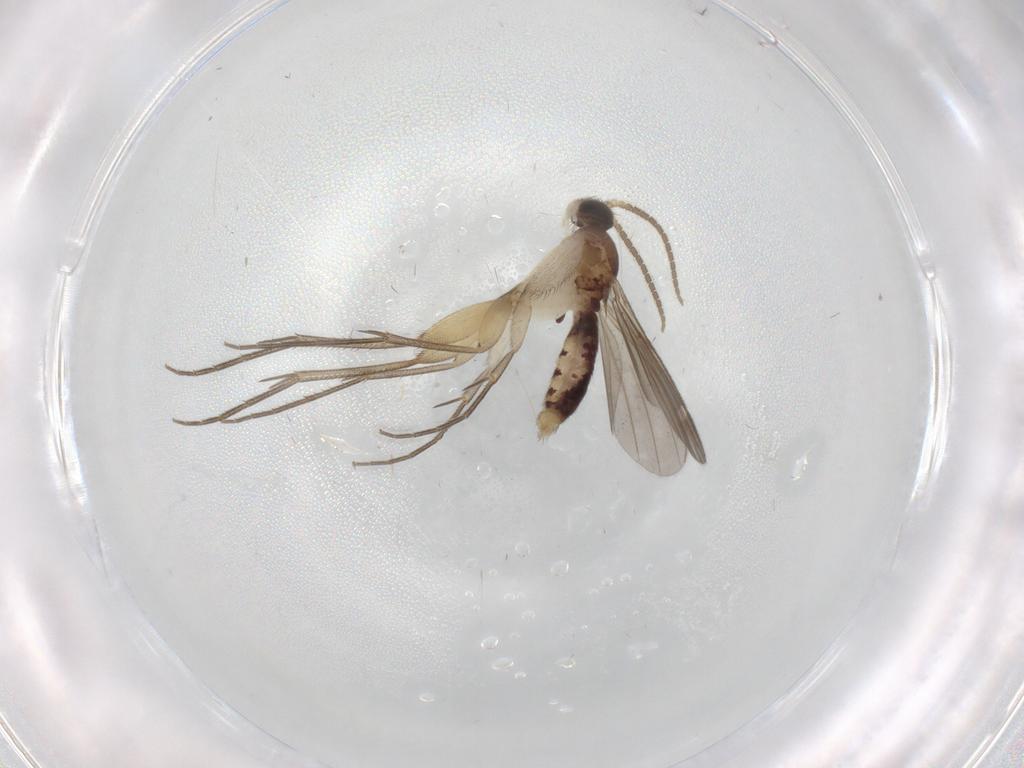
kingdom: Animalia
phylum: Arthropoda
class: Insecta
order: Diptera
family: Mycetophilidae
